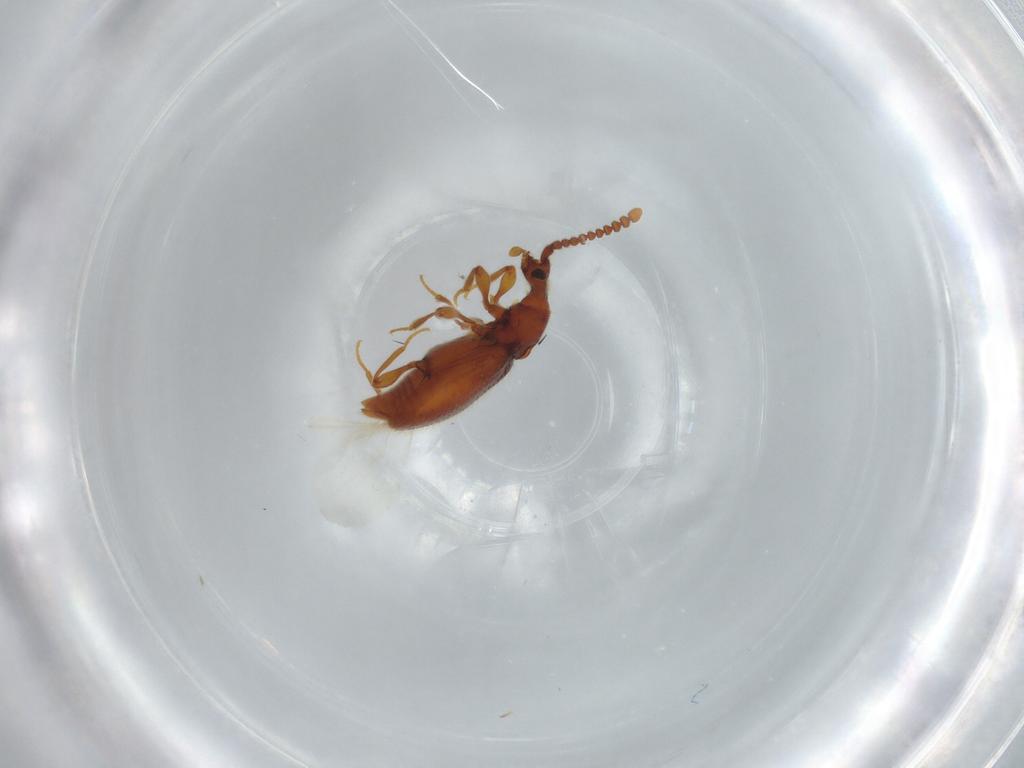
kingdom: Animalia
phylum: Arthropoda
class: Insecta
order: Coleoptera
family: Staphylinidae
